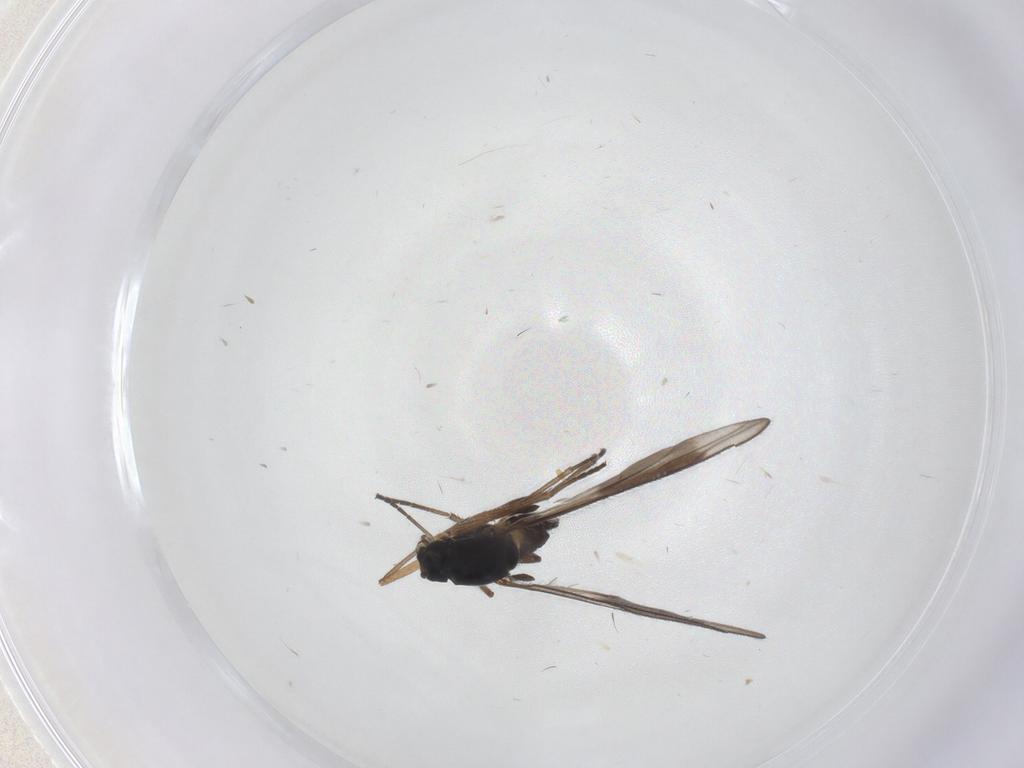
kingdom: Animalia
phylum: Arthropoda
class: Insecta
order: Diptera
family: Sciaridae
